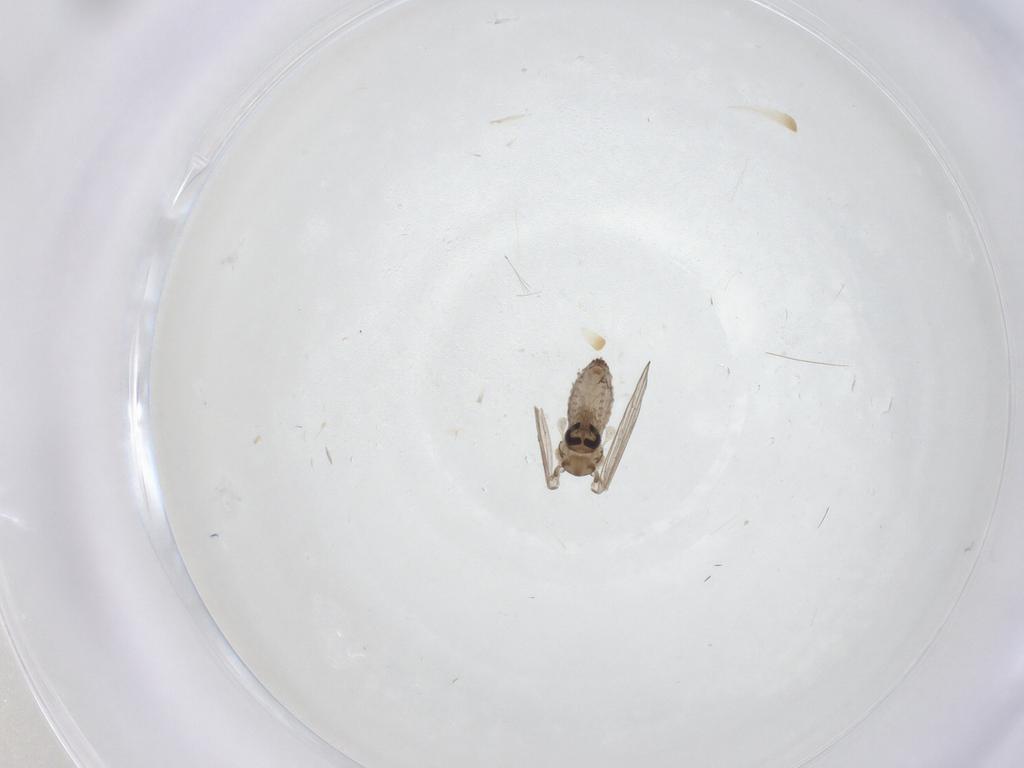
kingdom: Animalia
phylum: Arthropoda
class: Insecta
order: Diptera
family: Psychodidae
